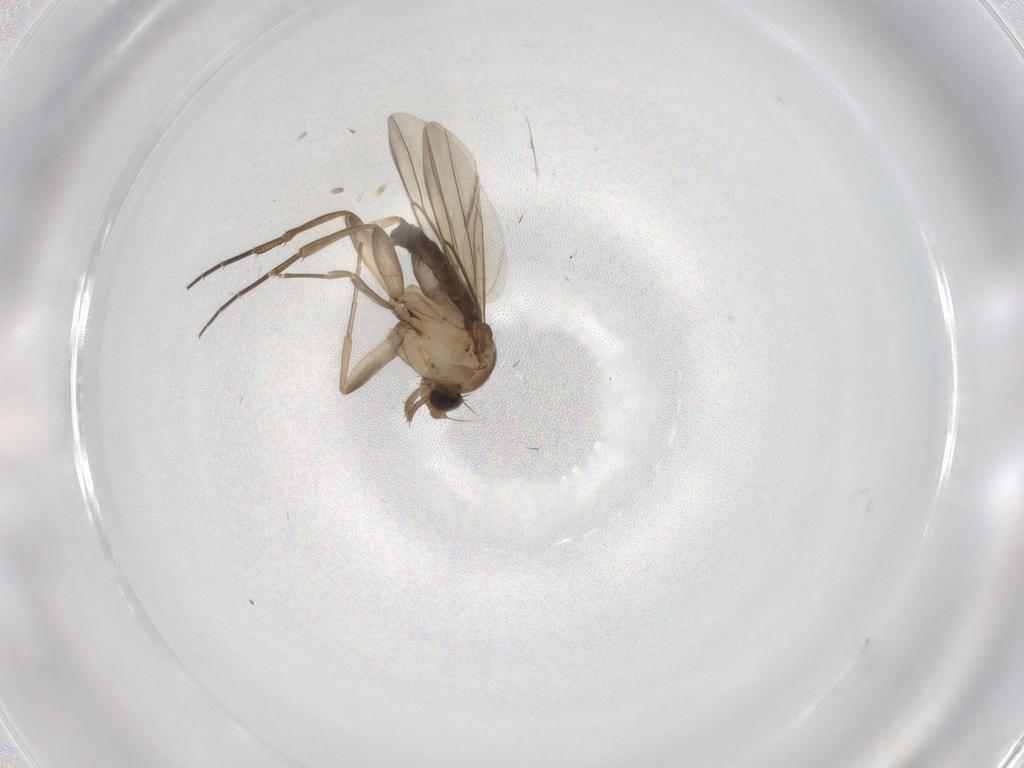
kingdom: Animalia
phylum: Arthropoda
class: Insecta
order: Diptera
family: Phoridae
